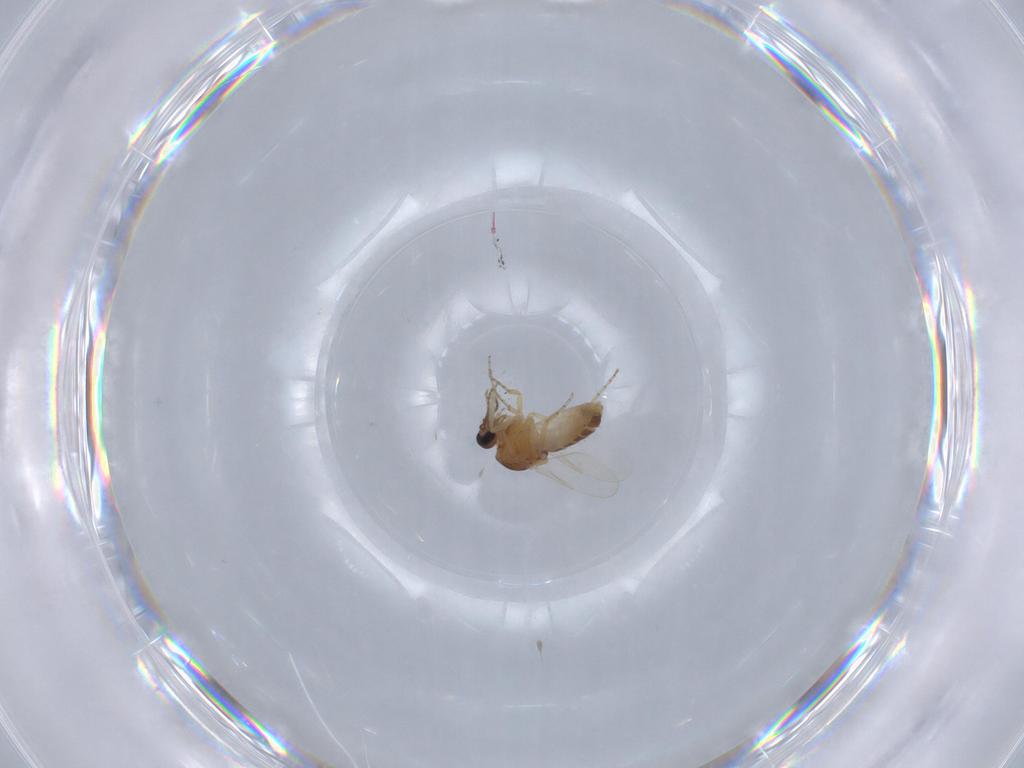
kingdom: Animalia
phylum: Arthropoda
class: Insecta
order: Diptera
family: Ceratopogonidae
